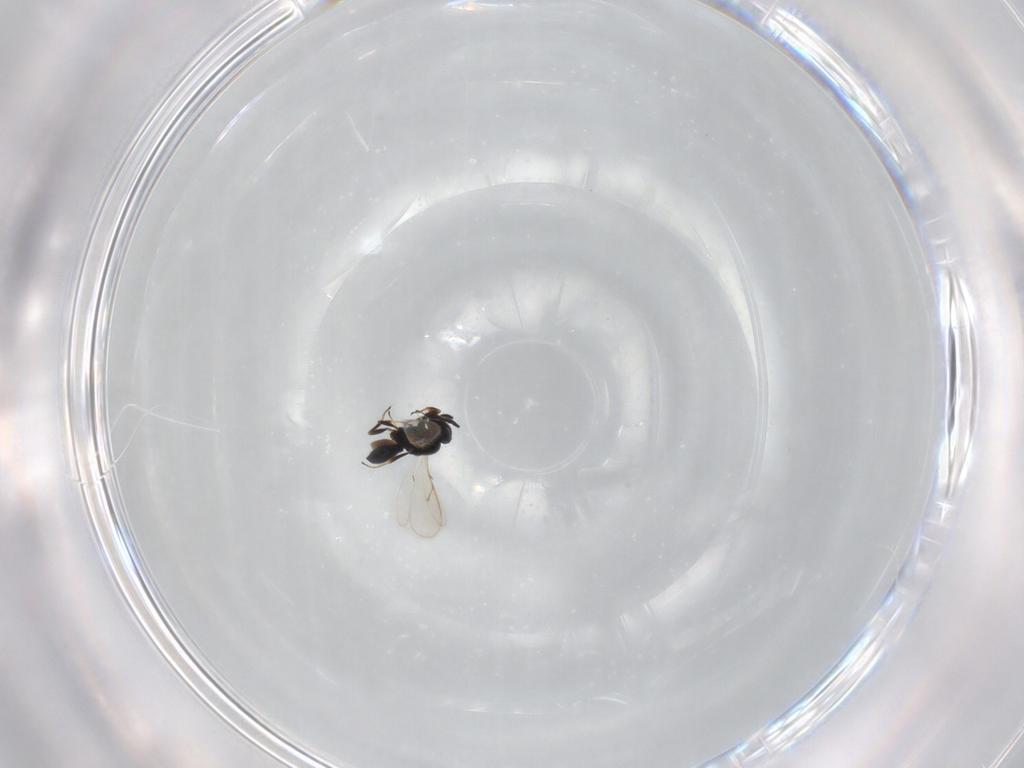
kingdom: Animalia
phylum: Arthropoda
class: Insecta
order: Hymenoptera
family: Scelionidae
